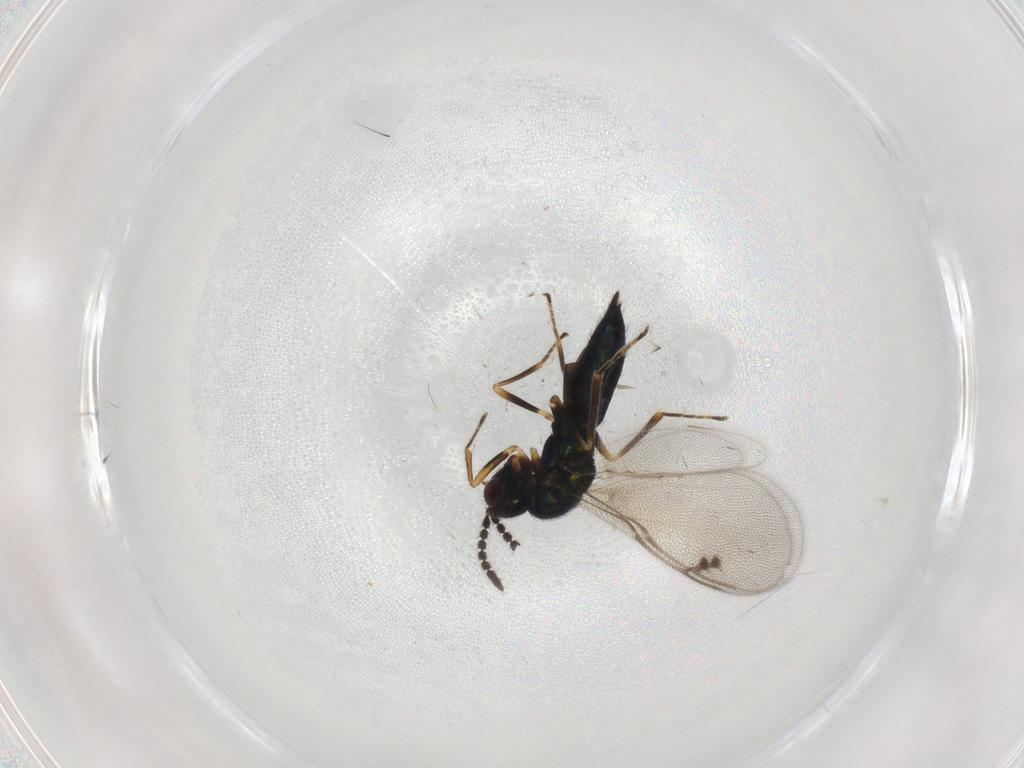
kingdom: Animalia
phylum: Arthropoda
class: Insecta
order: Hymenoptera
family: Pirenidae
